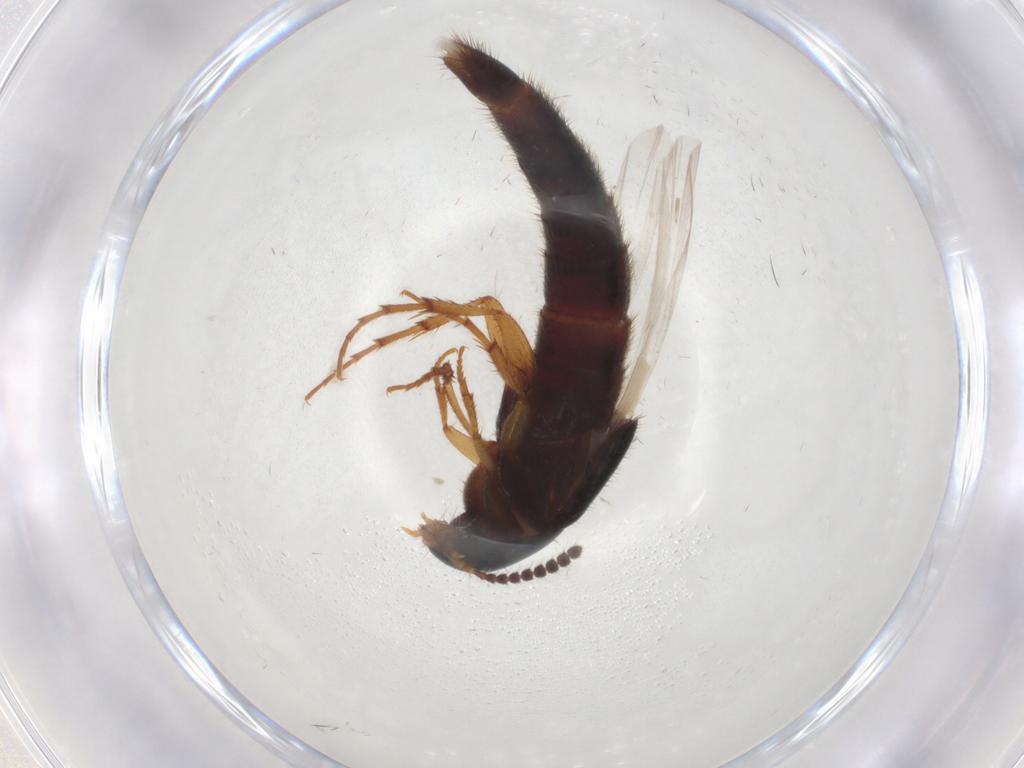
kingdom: Animalia
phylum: Arthropoda
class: Insecta
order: Coleoptera
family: Staphylinidae
